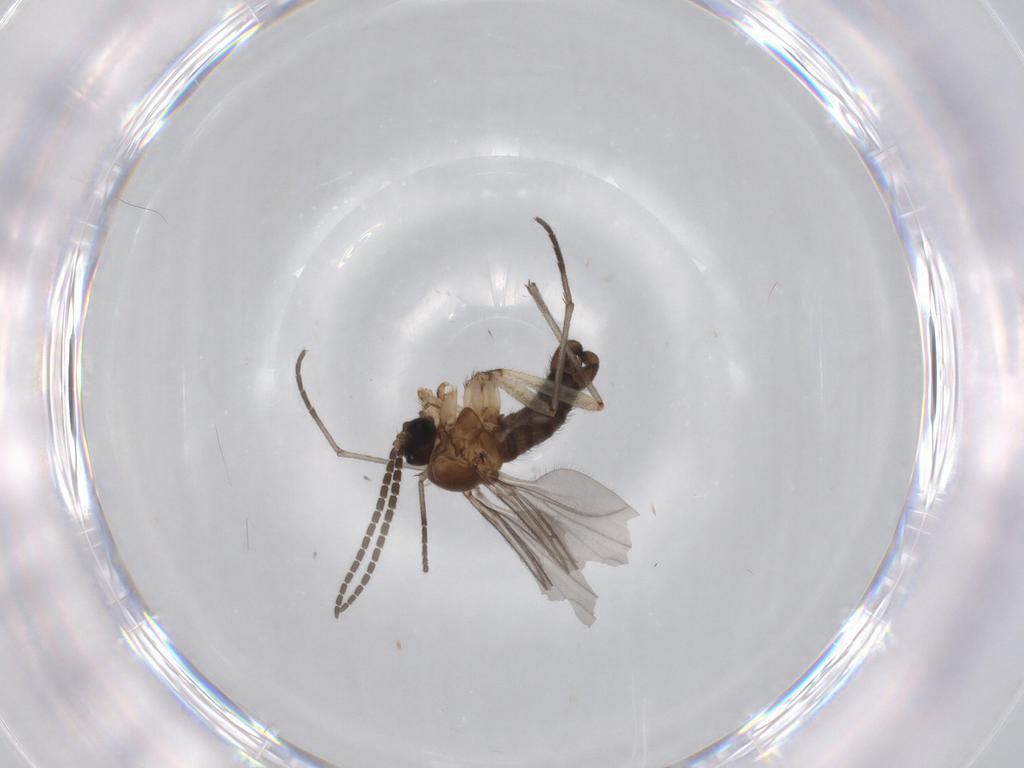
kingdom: Animalia
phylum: Arthropoda
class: Insecta
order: Diptera
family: Sciaridae
